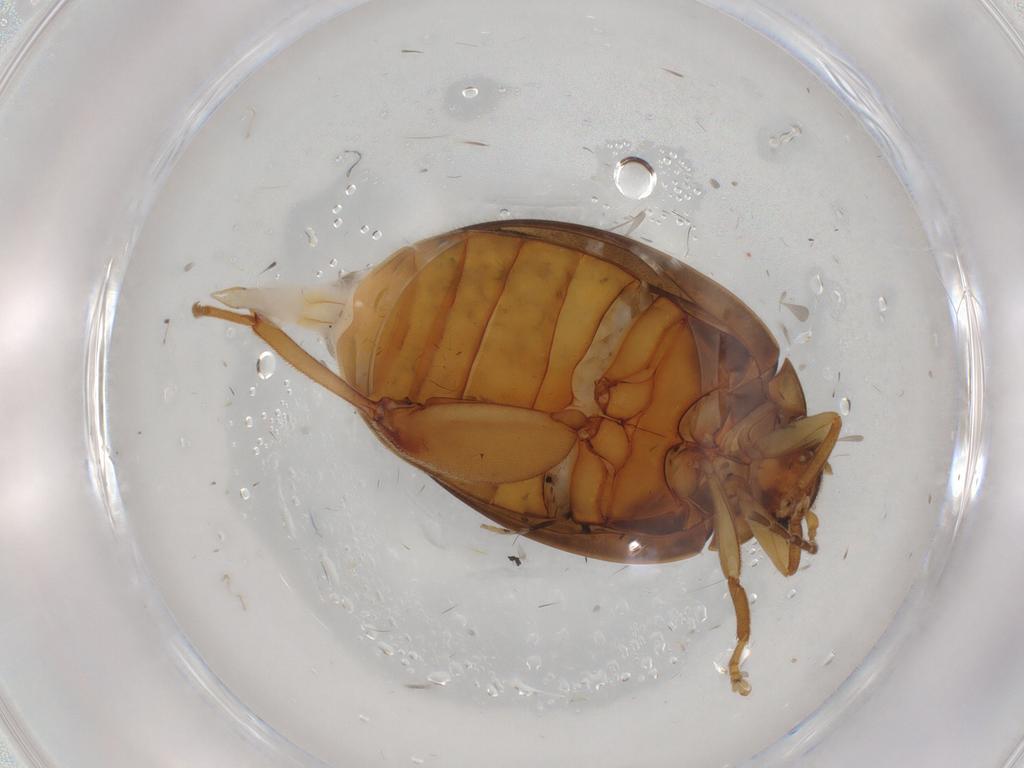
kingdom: Animalia
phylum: Arthropoda
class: Insecta
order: Coleoptera
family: Scirtidae
